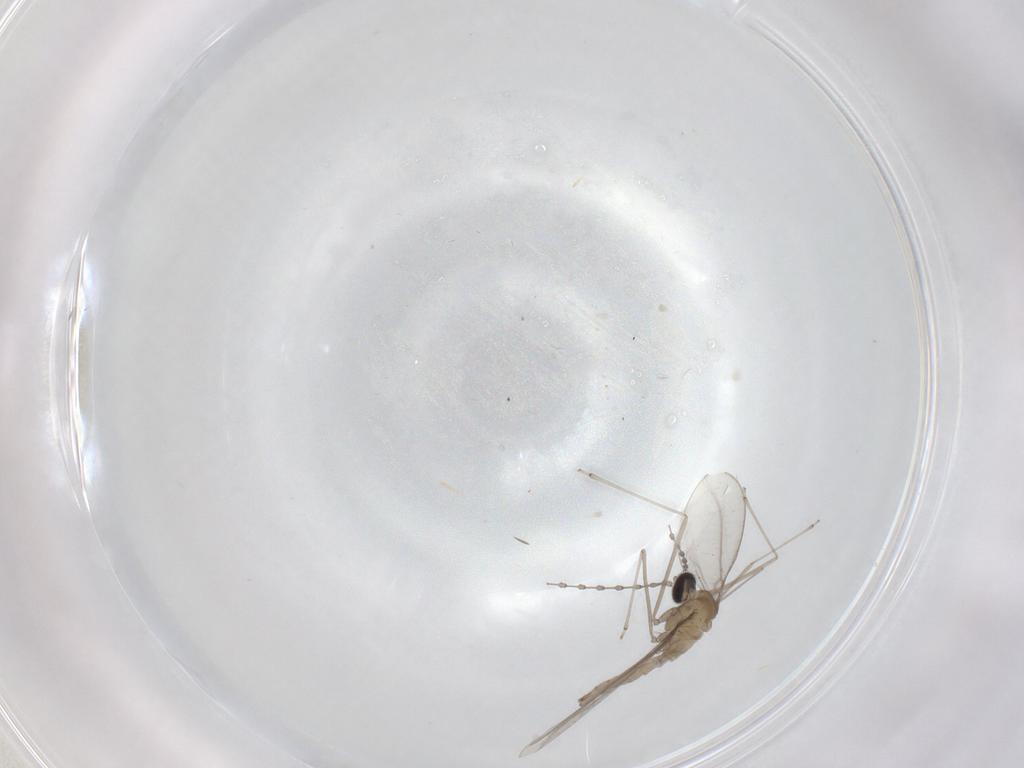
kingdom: Animalia
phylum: Arthropoda
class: Insecta
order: Diptera
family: Cecidomyiidae
